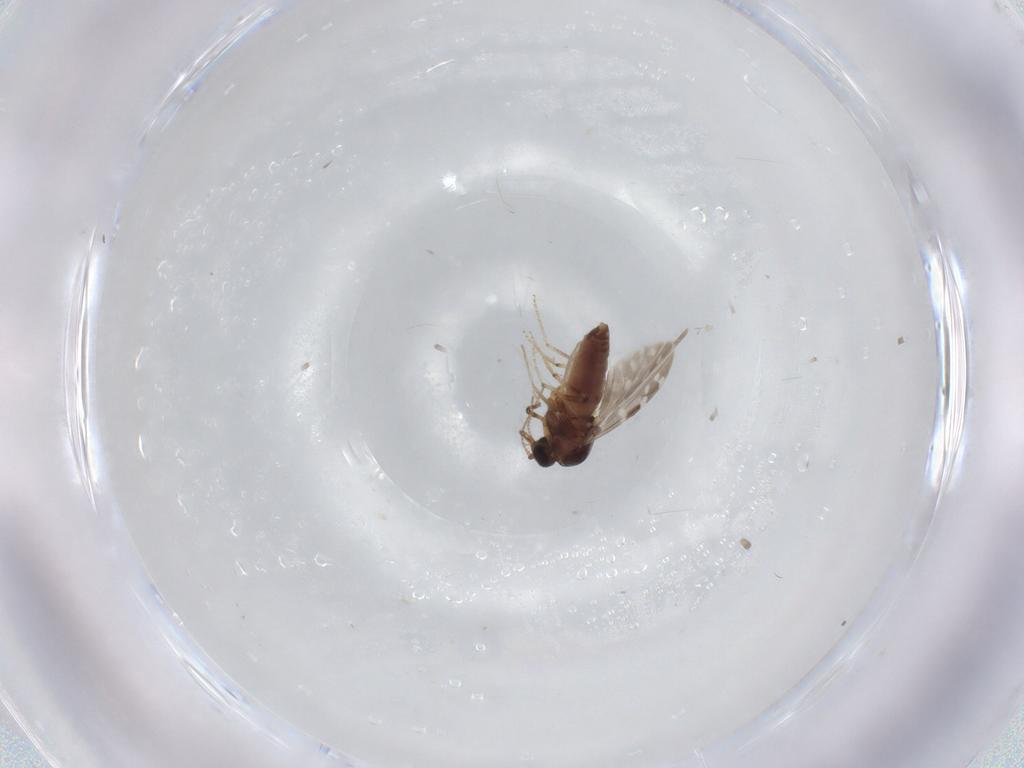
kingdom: Animalia
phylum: Arthropoda
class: Insecta
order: Diptera
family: Ceratopogonidae
